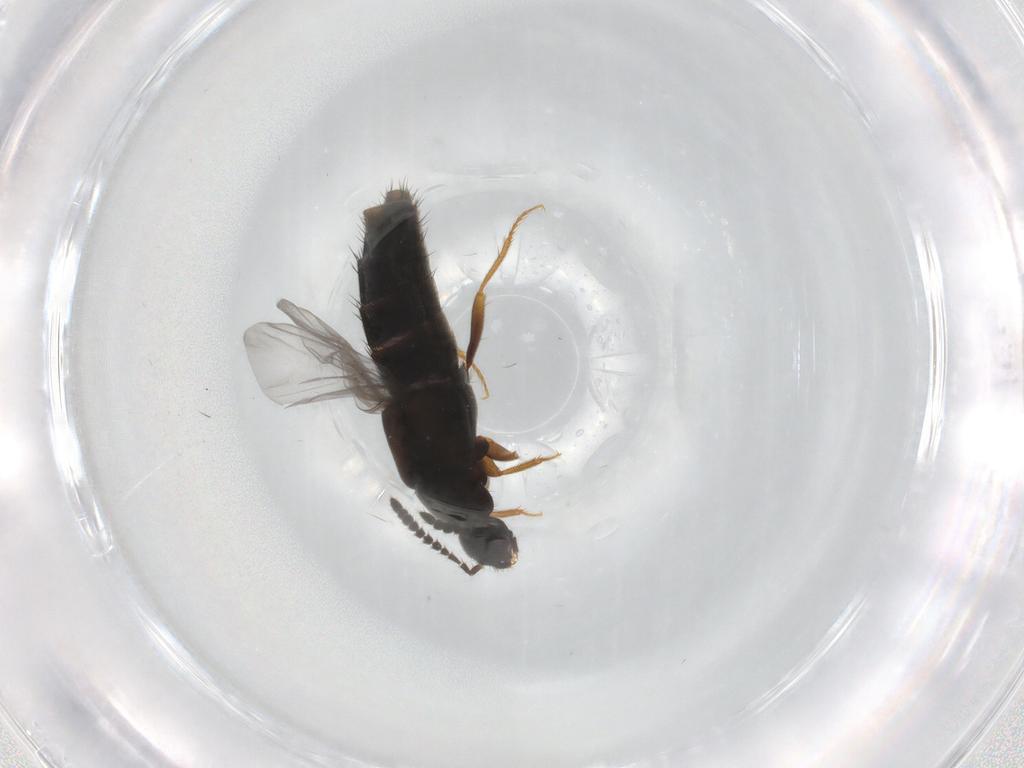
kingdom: Animalia
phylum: Arthropoda
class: Insecta
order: Coleoptera
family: Staphylinidae
